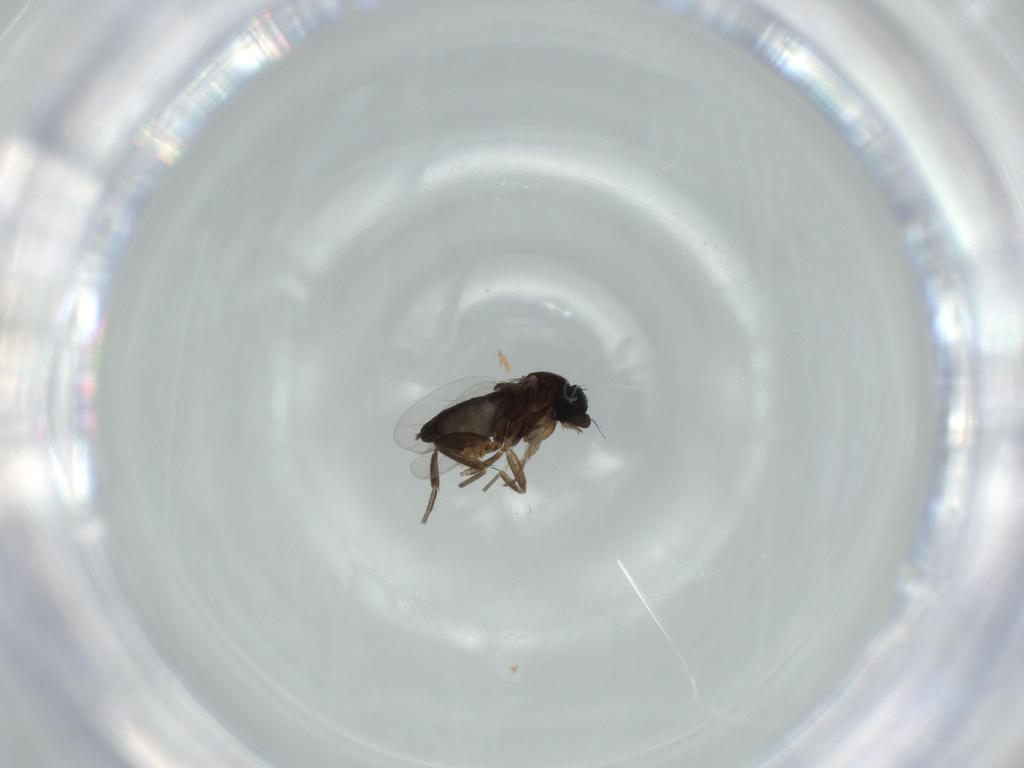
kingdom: Animalia
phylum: Arthropoda
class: Insecta
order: Diptera
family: Phoridae
